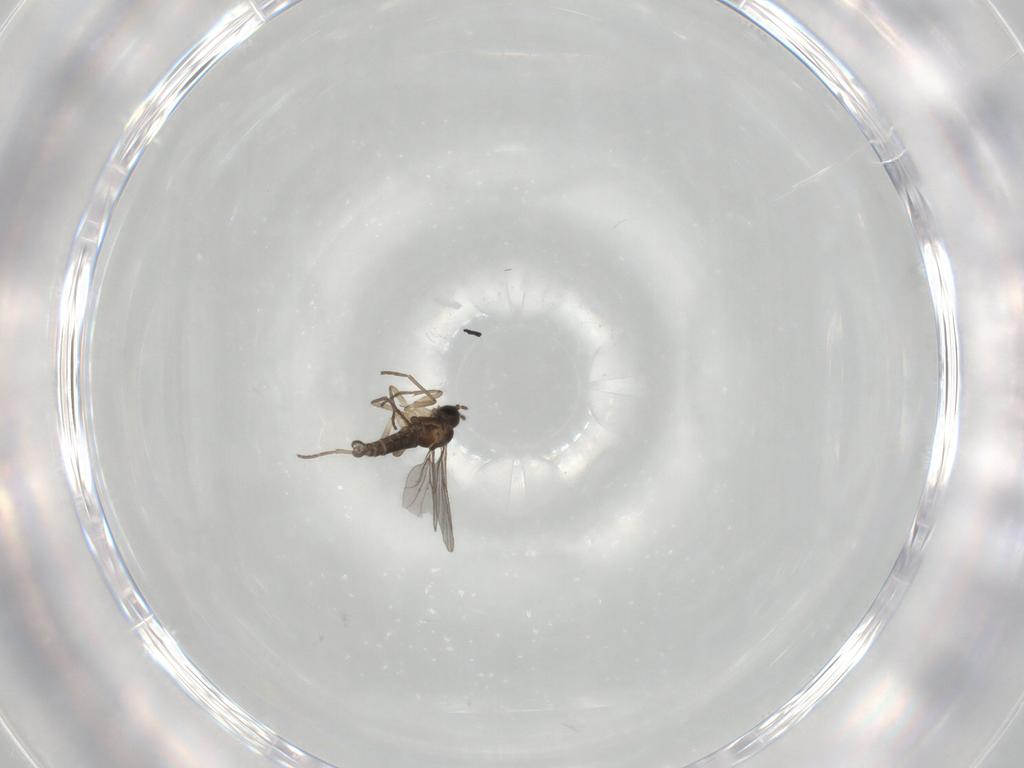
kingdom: Animalia
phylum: Arthropoda
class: Insecta
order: Diptera
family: Sciaridae
